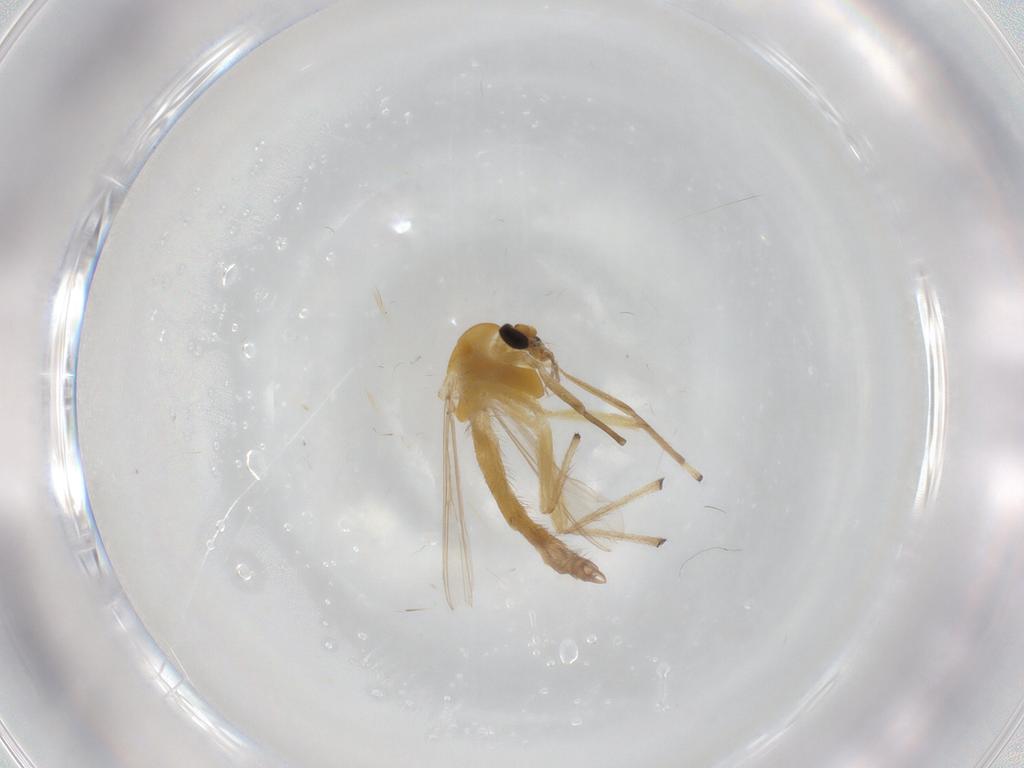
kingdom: Animalia
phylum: Arthropoda
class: Insecta
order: Diptera
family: Chironomidae
